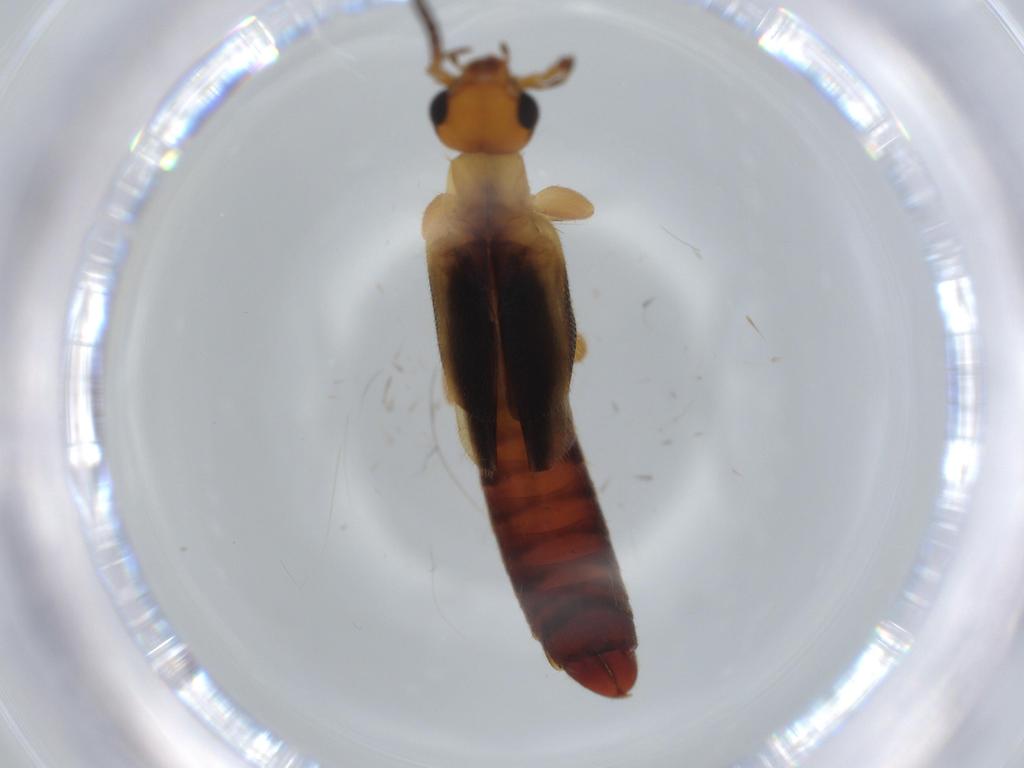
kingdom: Animalia
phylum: Arthropoda
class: Insecta
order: Dermaptera
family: Forficulidae
